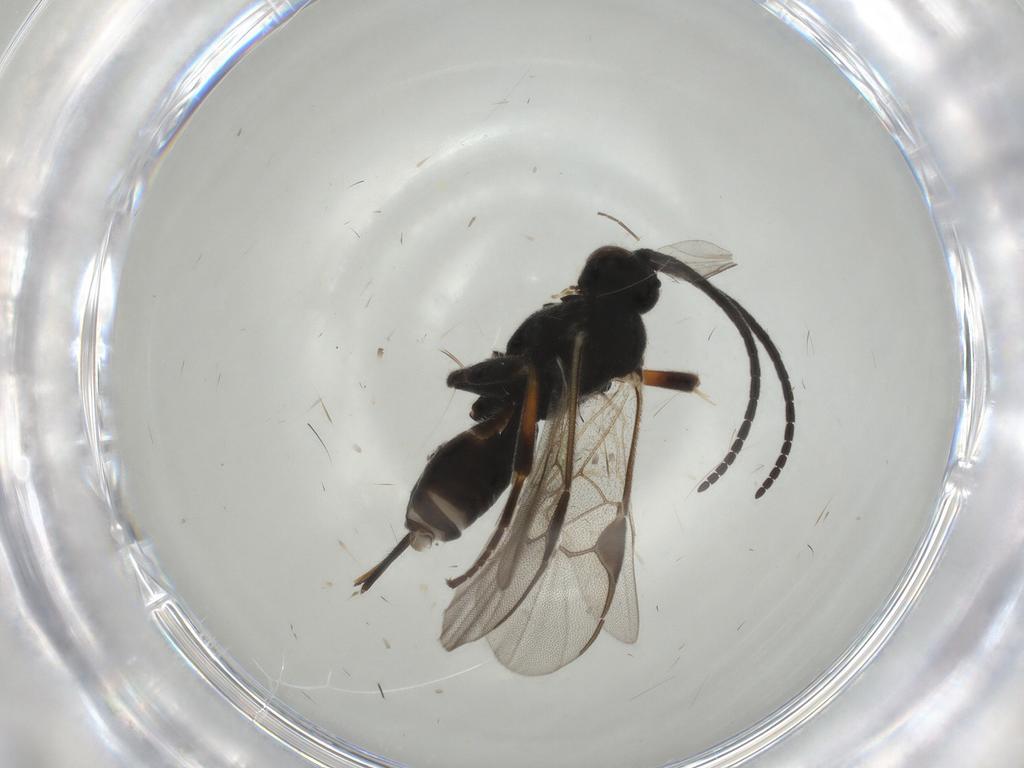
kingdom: Animalia
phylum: Arthropoda
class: Insecta
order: Hymenoptera
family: Braconidae
